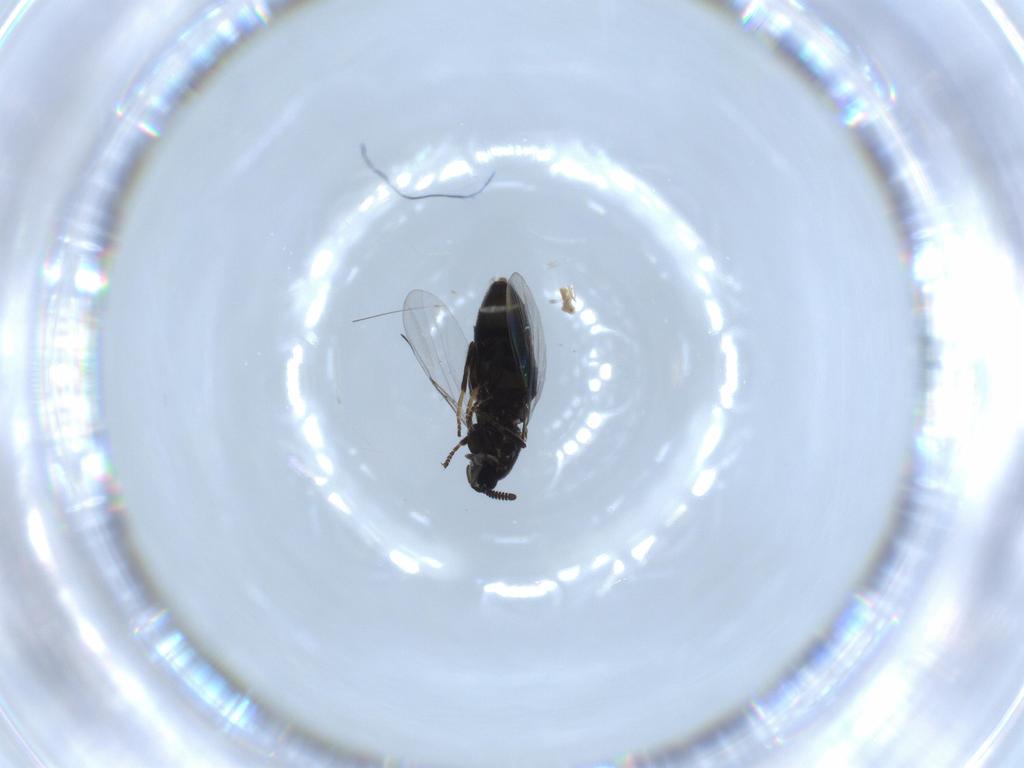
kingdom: Animalia
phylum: Arthropoda
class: Insecta
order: Diptera
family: Scatopsidae
